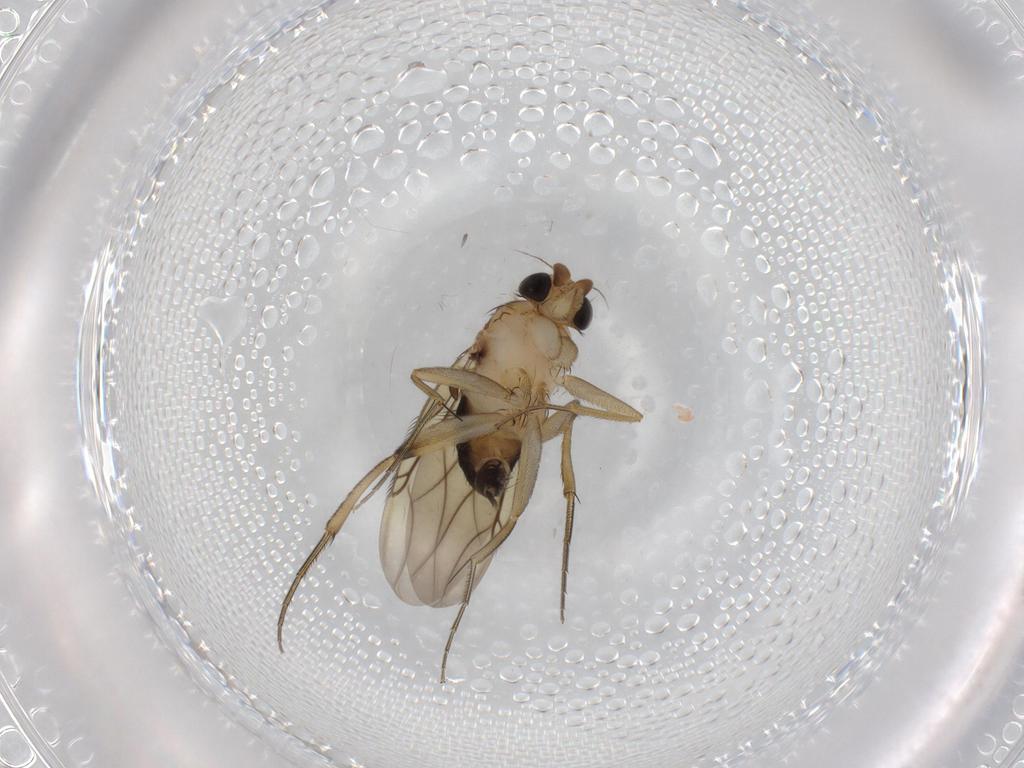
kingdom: Animalia
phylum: Arthropoda
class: Insecta
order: Diptera
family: Phoridae
